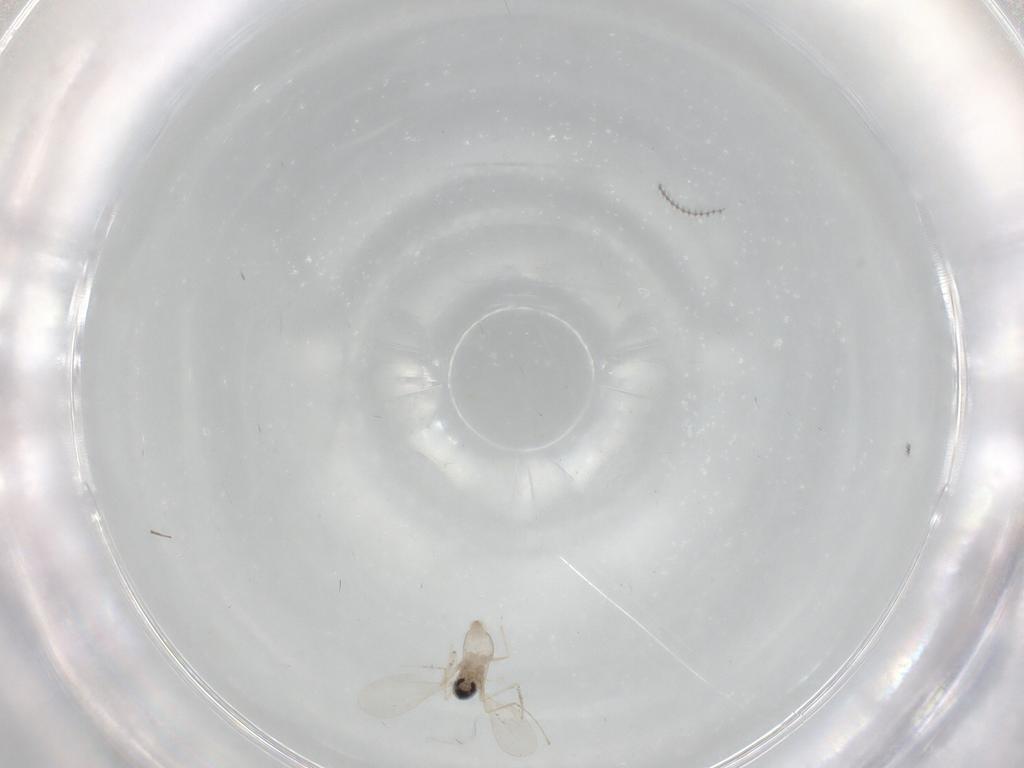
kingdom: Animalia
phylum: Arthropoda
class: Insecta
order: Diptera
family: Cecidomyiidae
